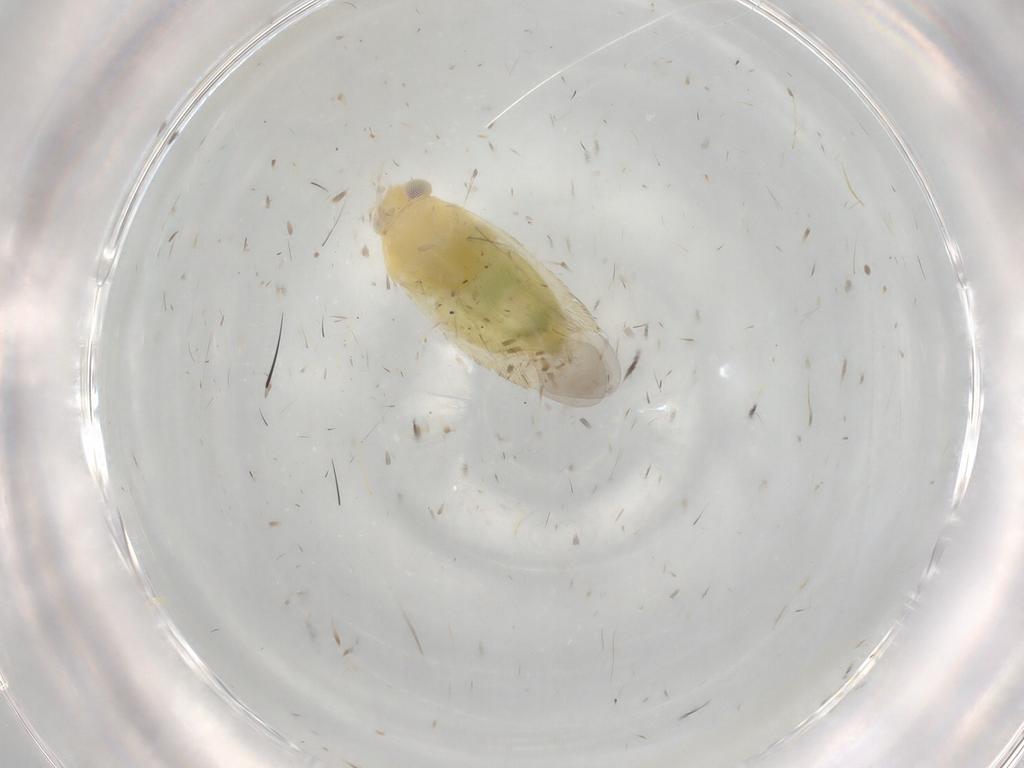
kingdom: Animalia
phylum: Arthropoda
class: Insecta
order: Hemiptera
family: Miridae
